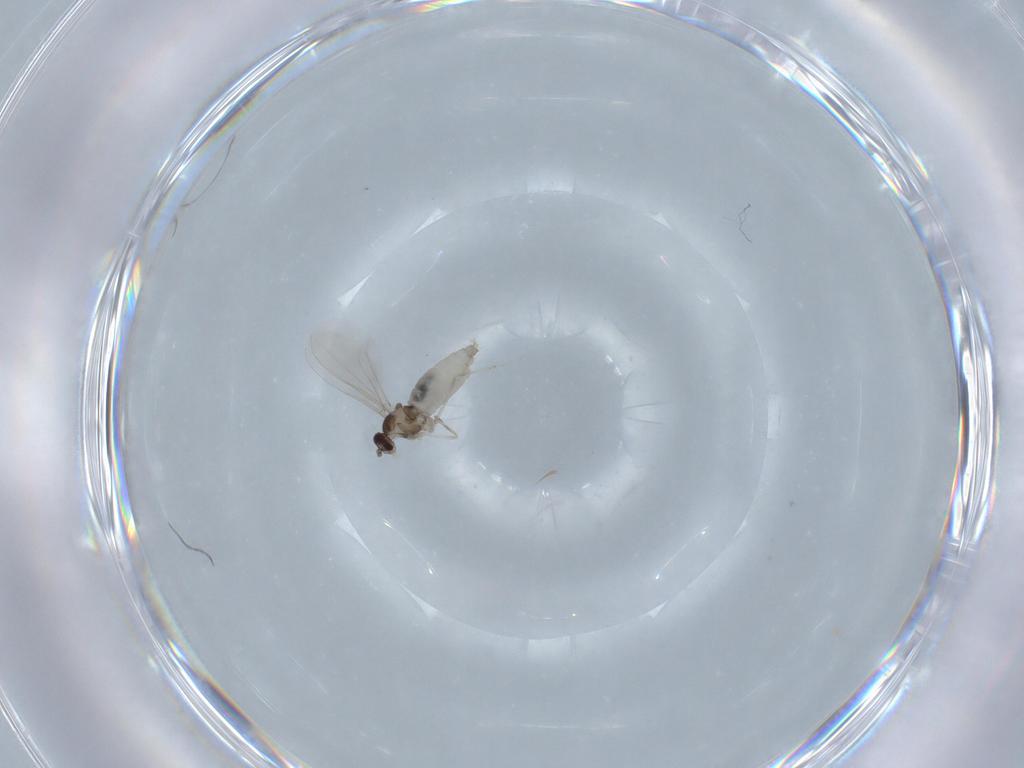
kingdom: Animalia
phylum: Arthropoda
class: Insecta
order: Diptera
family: Cecidomyiidae
